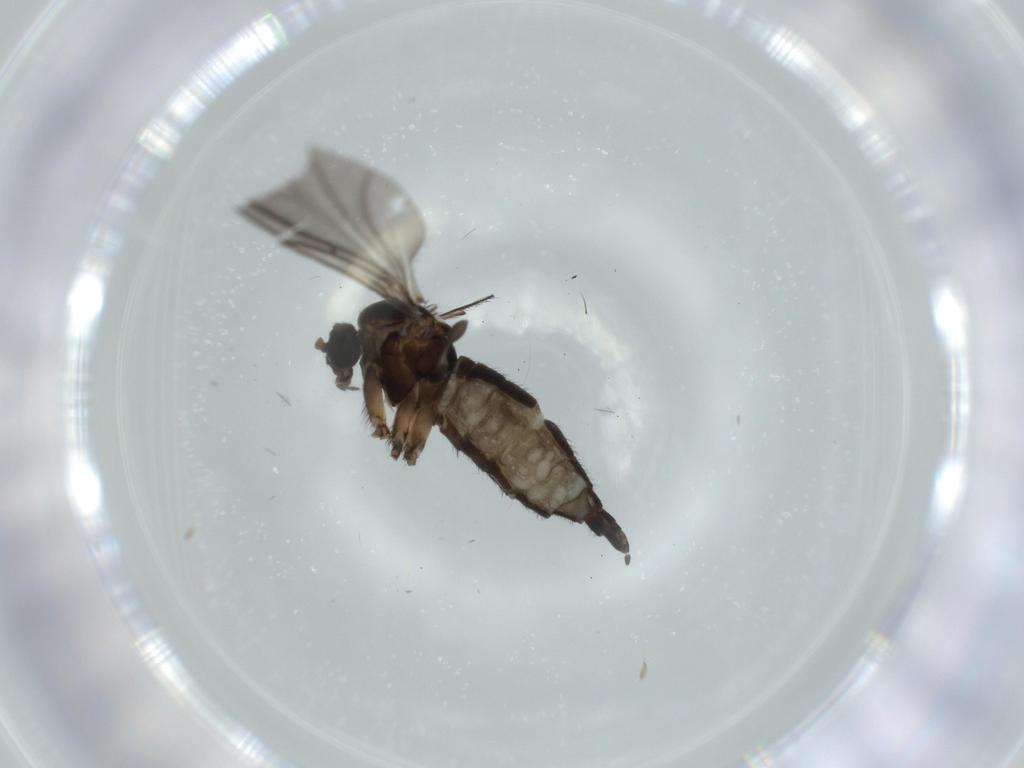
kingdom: Animalia
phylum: Arthropoda
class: Insecta
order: Diptera
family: Sciaridae
